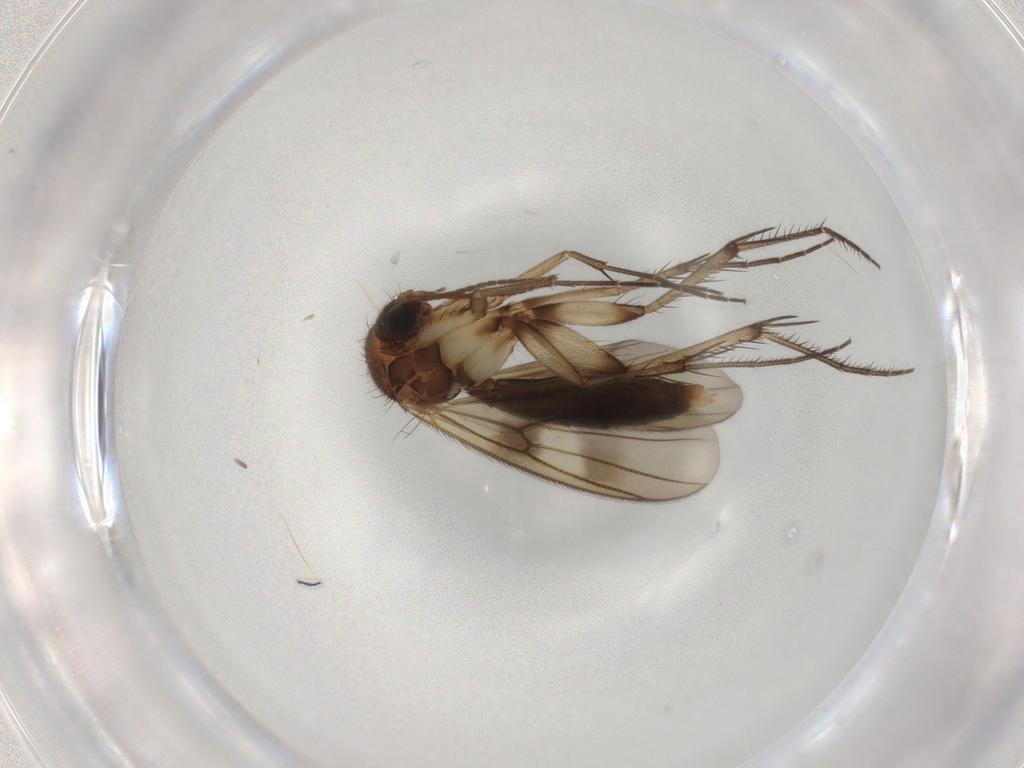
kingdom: Animalia
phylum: Arthropoda
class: Insecta
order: Diptera
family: Mycetophilidae
